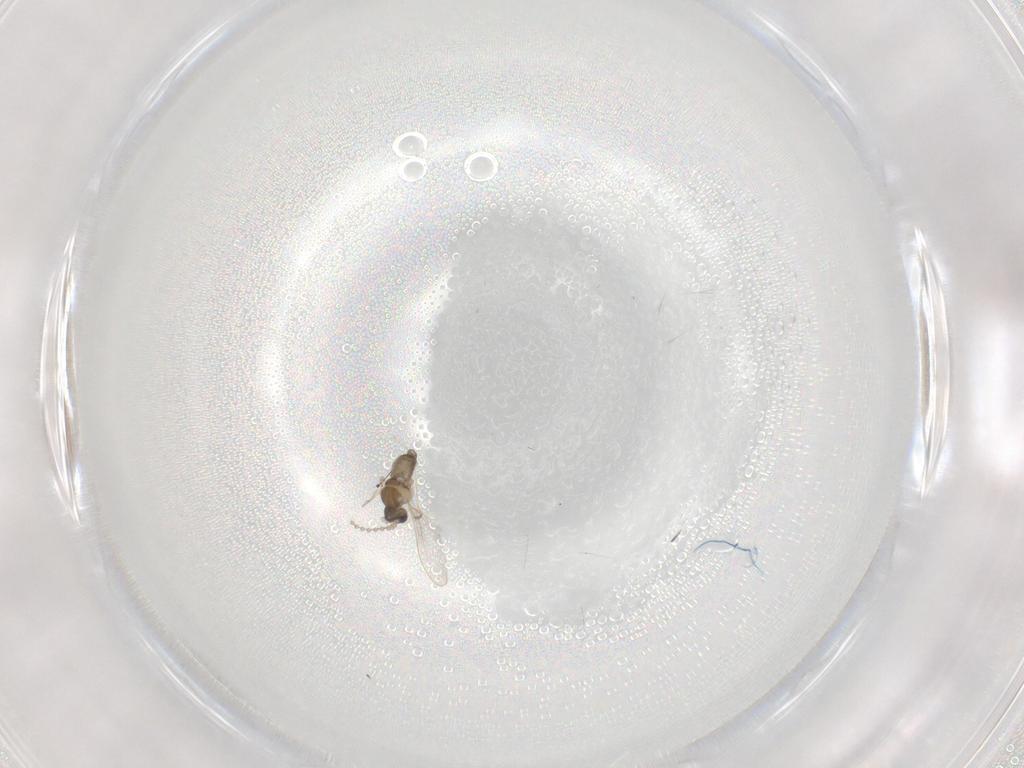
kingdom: Animalia
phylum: Arthropoda
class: Insecta
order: Diptera
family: Cecidomyiidae
